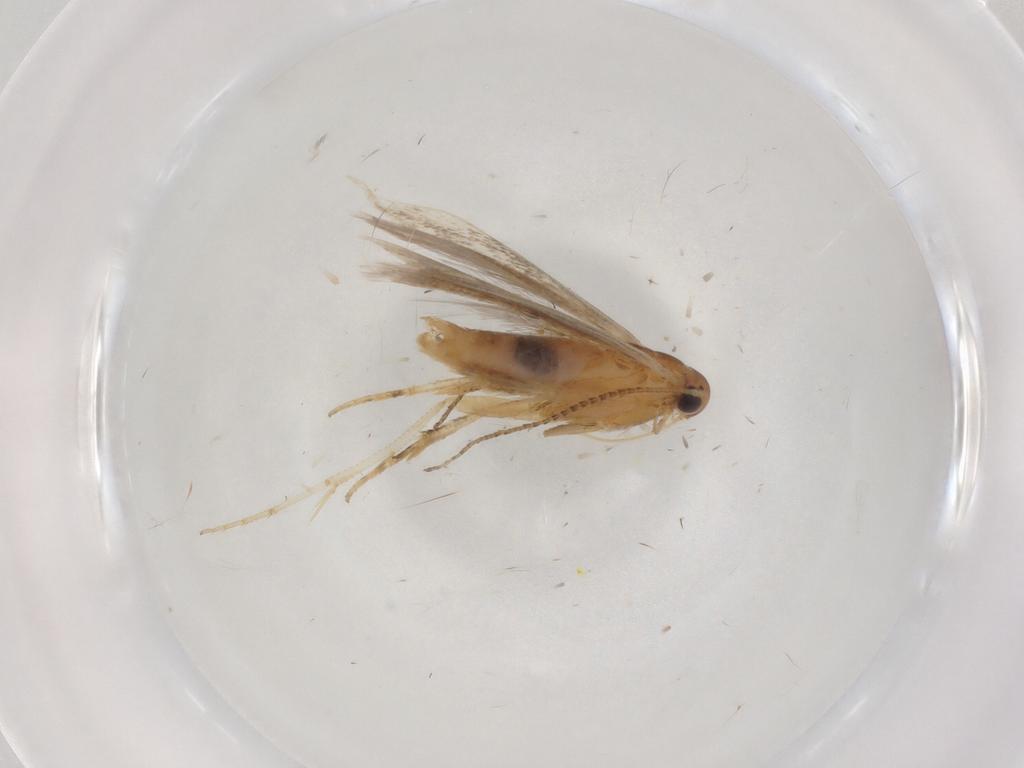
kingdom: Animalia
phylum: Arthropoda
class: Insecta
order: Lepidoptera
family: Gelechiidae
